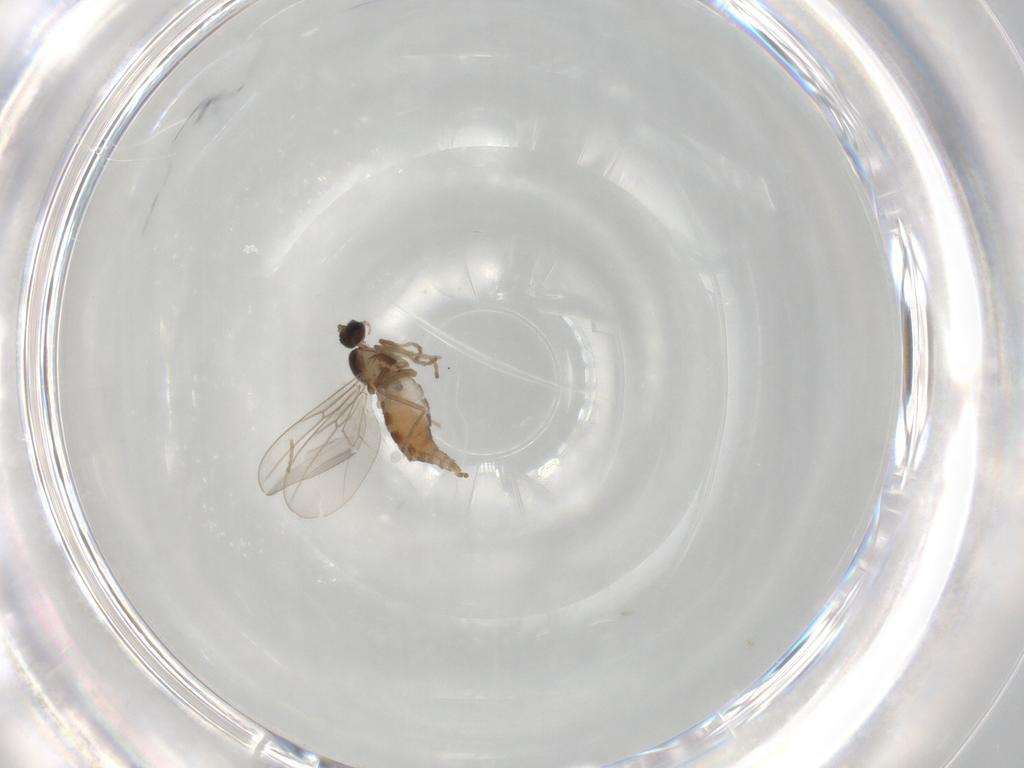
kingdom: Animalia
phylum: Arthropoda
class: Insecta
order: Diptera
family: Cecidomyiidae
